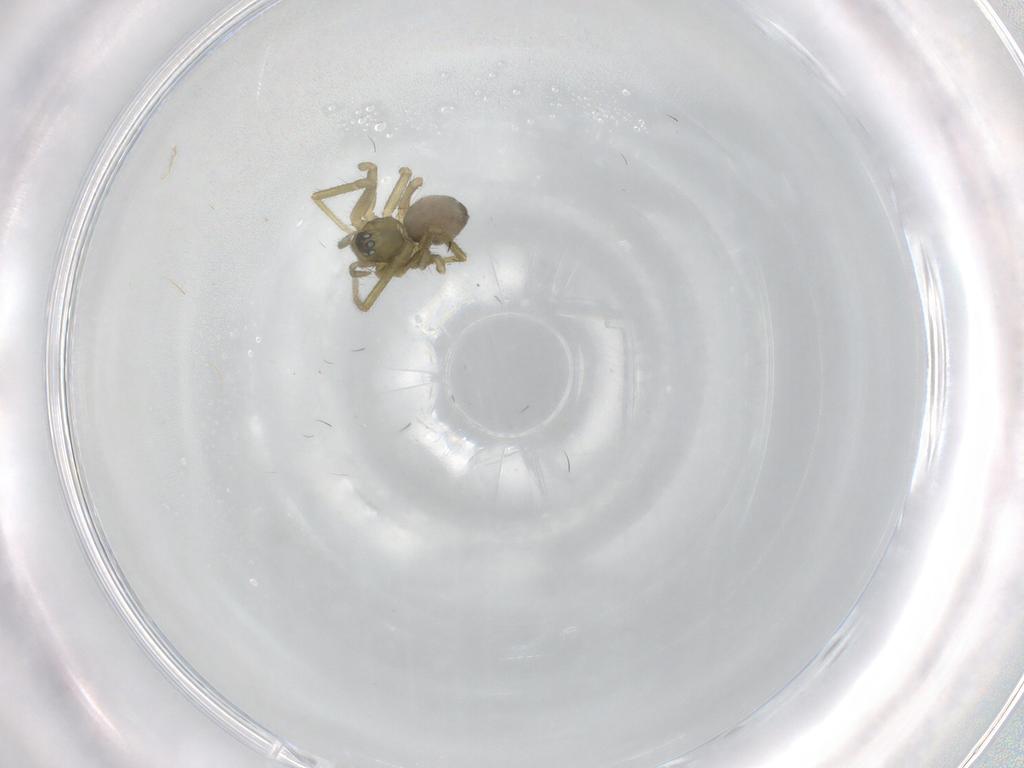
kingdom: Animalia
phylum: Arthropoda
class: Arachnida
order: Araneae
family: Linyphiidae
